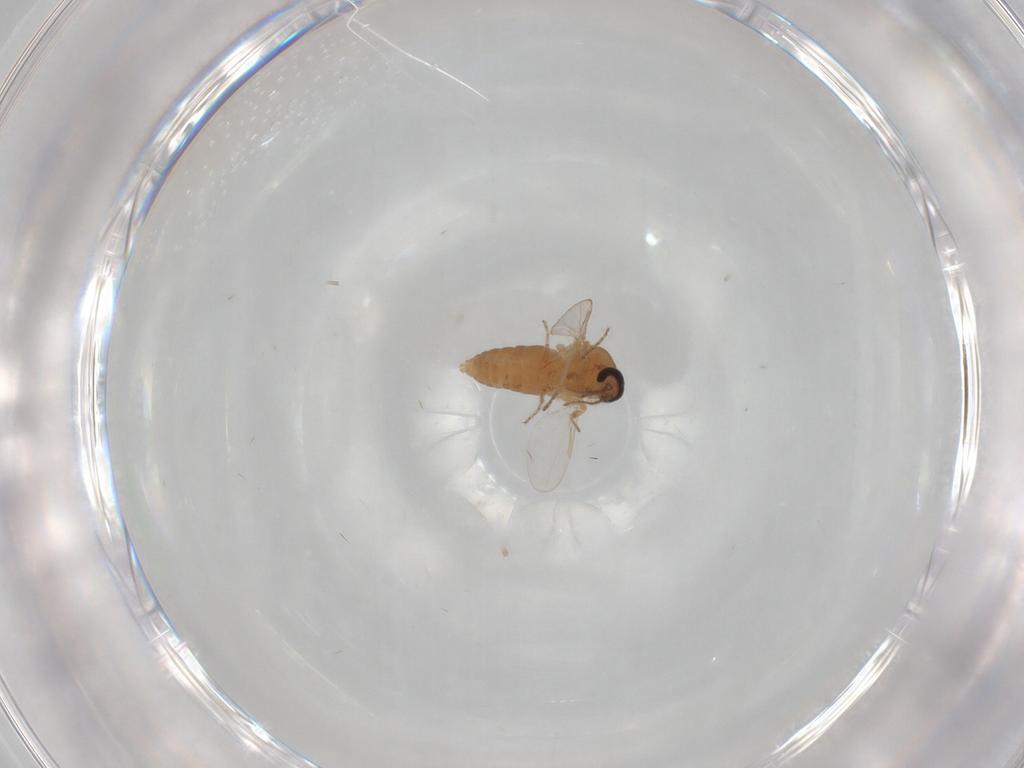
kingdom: Animalia
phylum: Arthropoda
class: Insecta
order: Diptera
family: Ceratopogonidae
